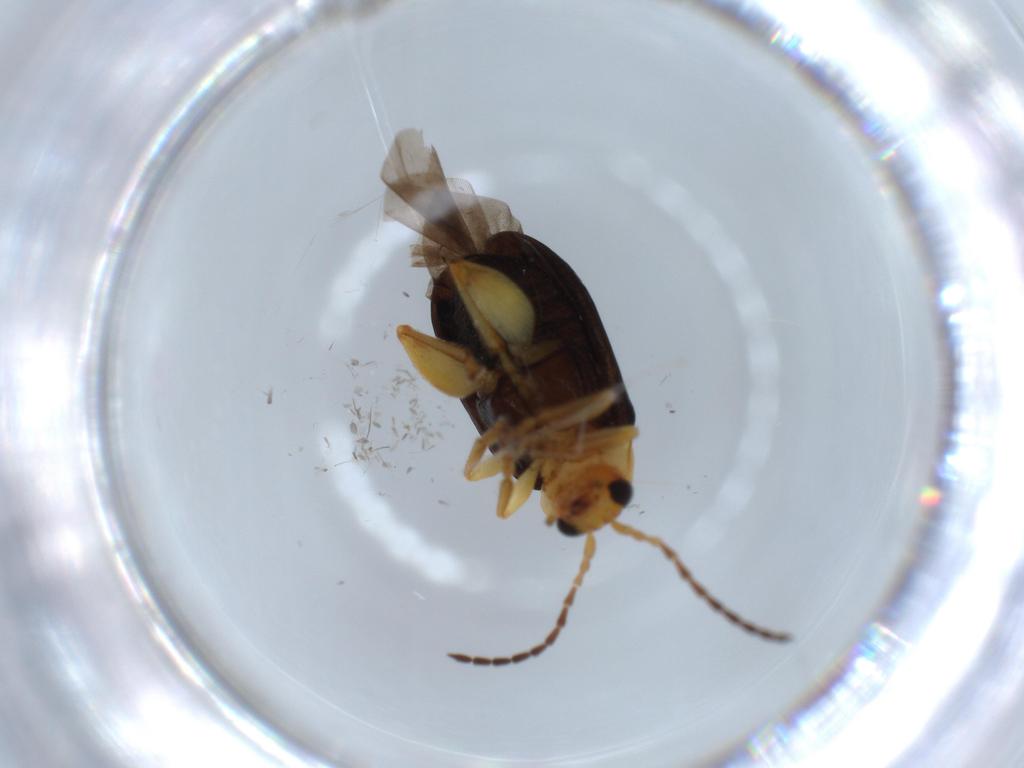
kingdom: Animalia
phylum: Arthropoda
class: Insecta
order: Coleoptera
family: Chrysomelidae
